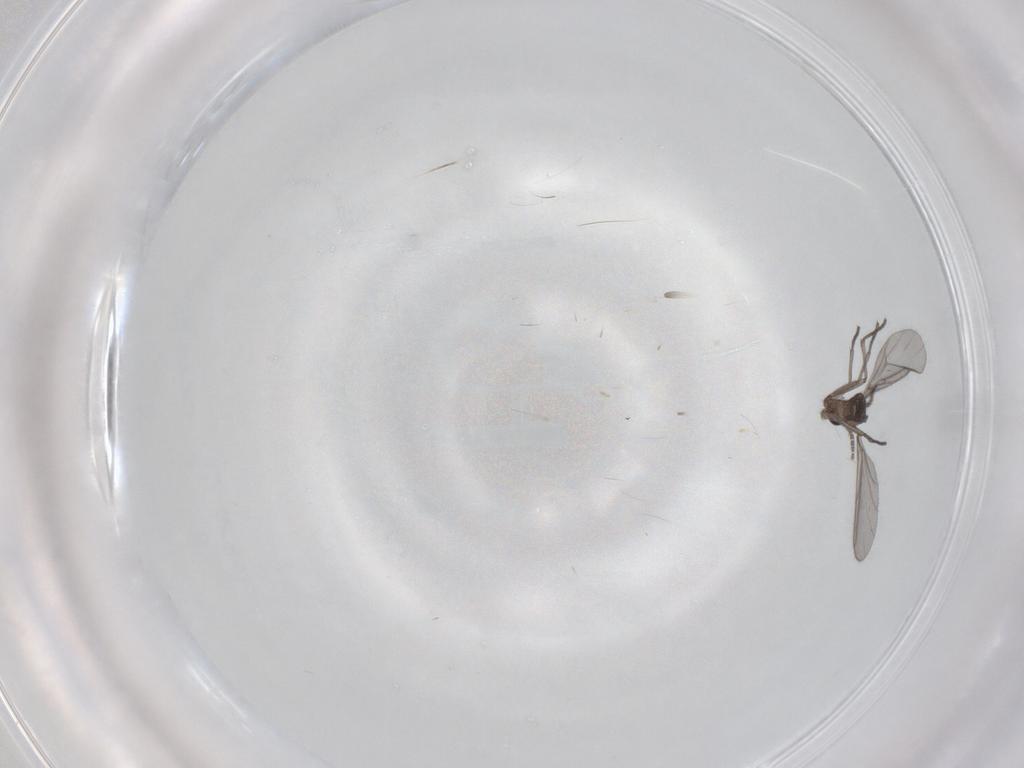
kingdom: Animalia
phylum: Arthropoda
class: Insecta
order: Diptera
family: Sciaridae
